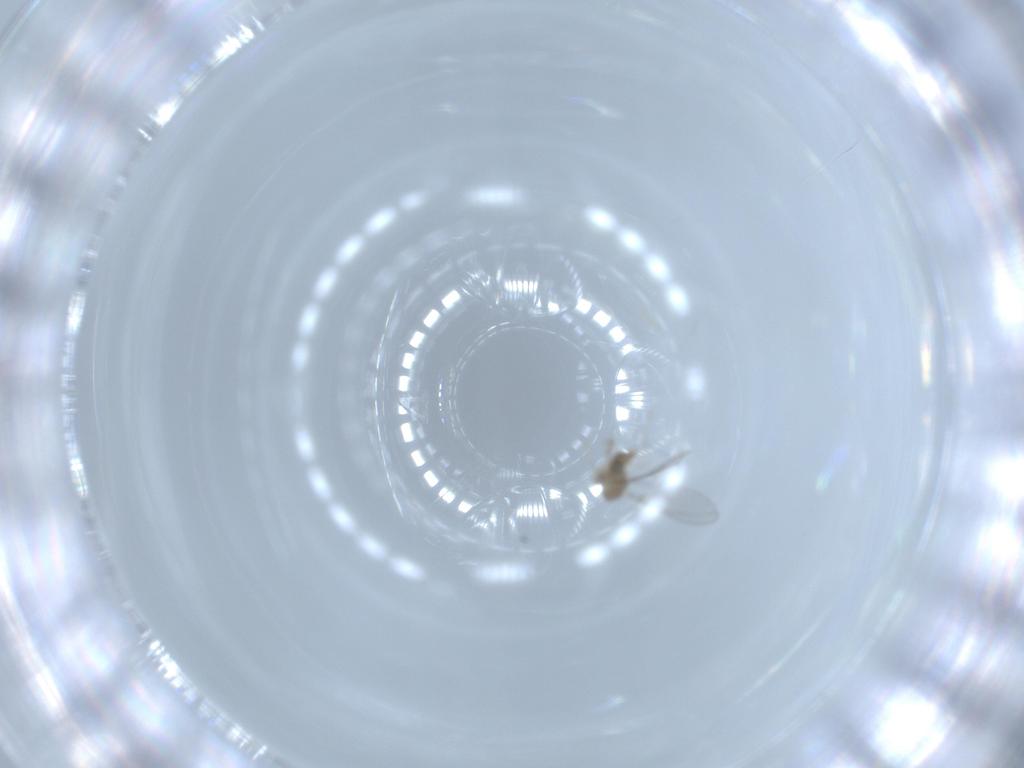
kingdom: Animalia
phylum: Arthropoda
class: Insecta
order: Diptera
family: Cecidomyiidae
